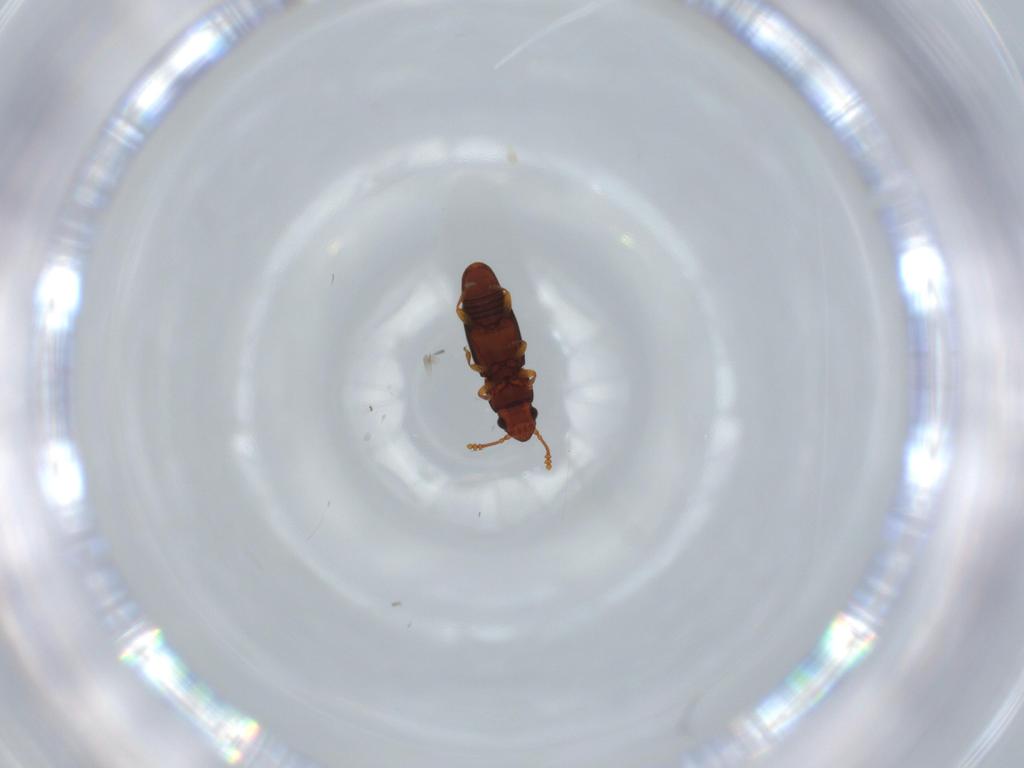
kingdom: Animalia
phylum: Arthropoda
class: Insecta
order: Coleoptera
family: Smicripidae
